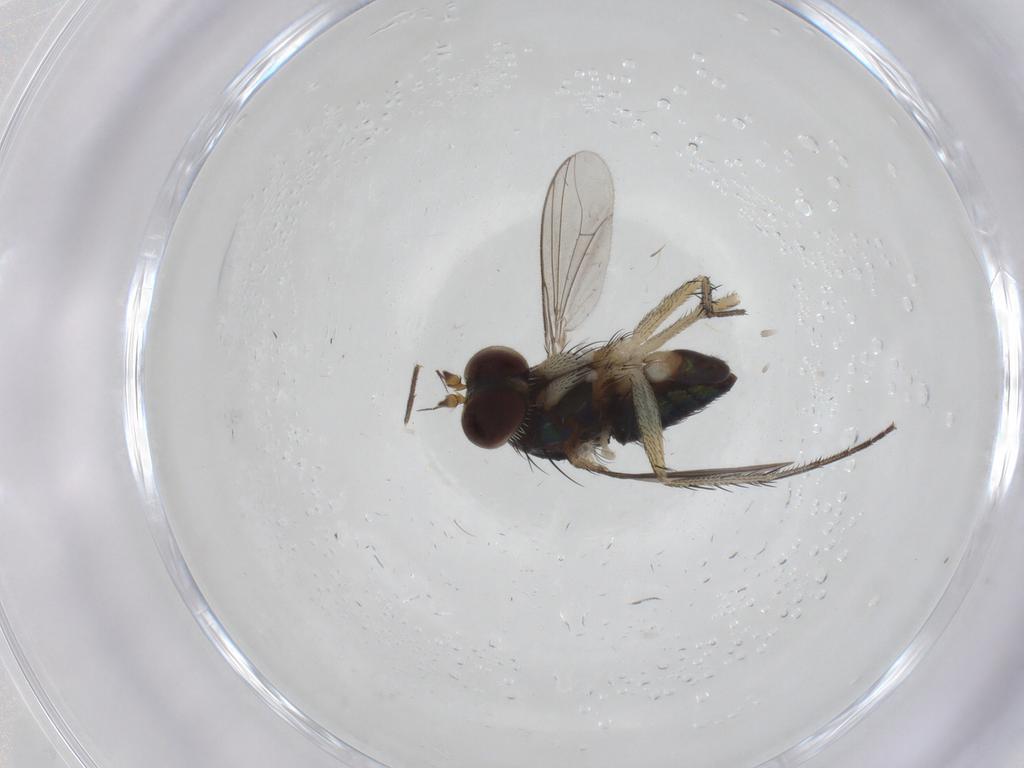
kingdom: Animalia
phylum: Arthropoda
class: Insecta
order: Diptera
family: Dolichopodidae
